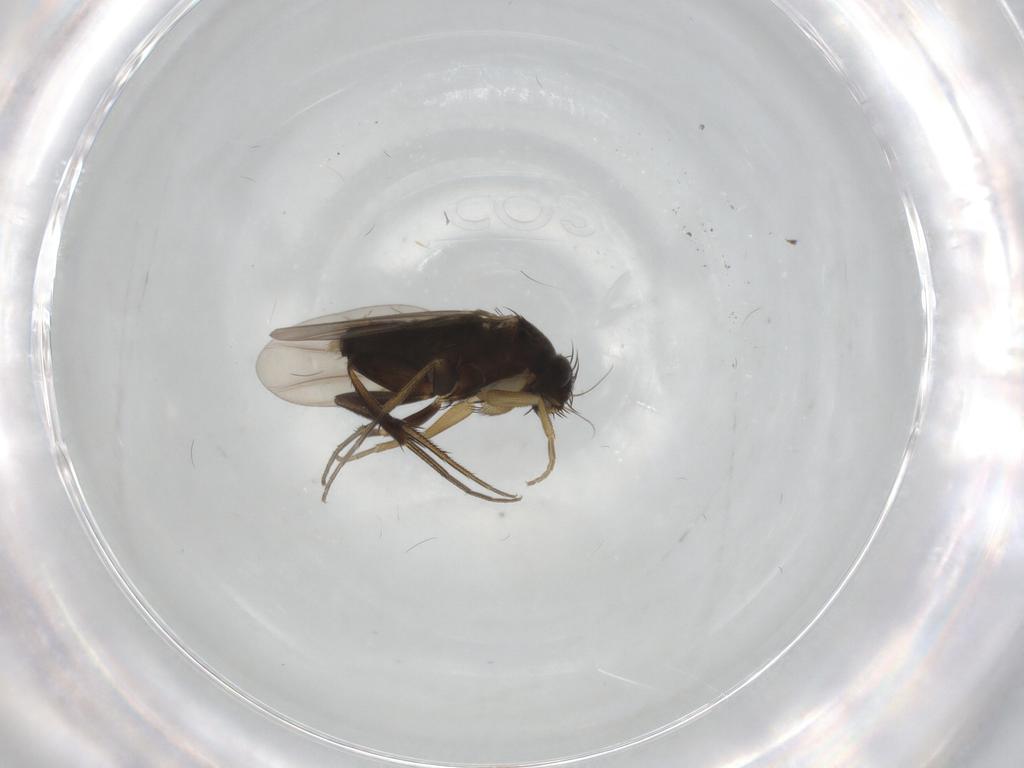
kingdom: Animalia
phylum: Arthropoda
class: Insecta
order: Diptera
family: Phoridae
